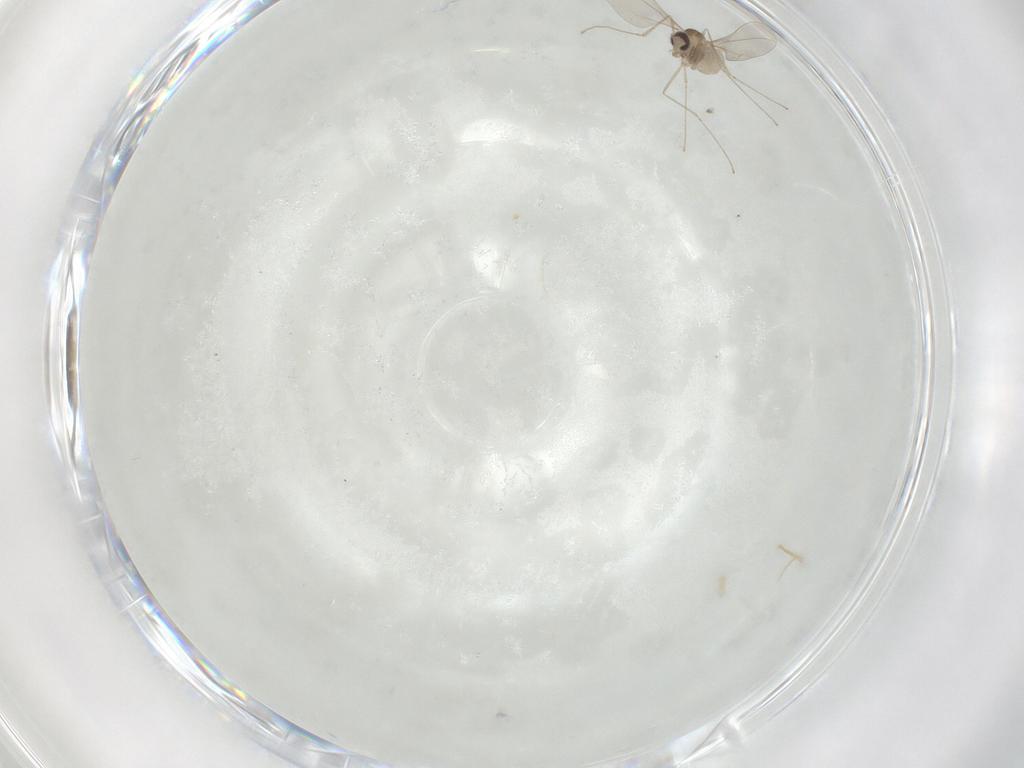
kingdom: Animalia
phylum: Arthropoda
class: Insecta
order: Diptera
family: Cecidomyiidae
